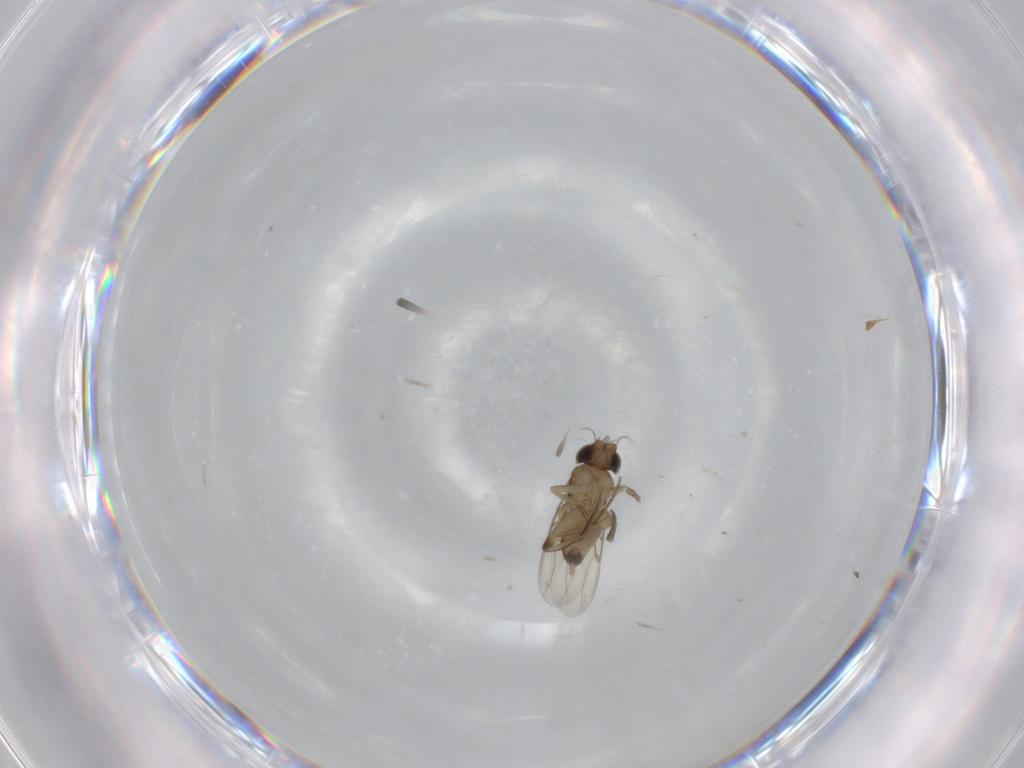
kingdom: Animalia
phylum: Arthropoda
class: Insecta
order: Diptera
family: Phoridae
